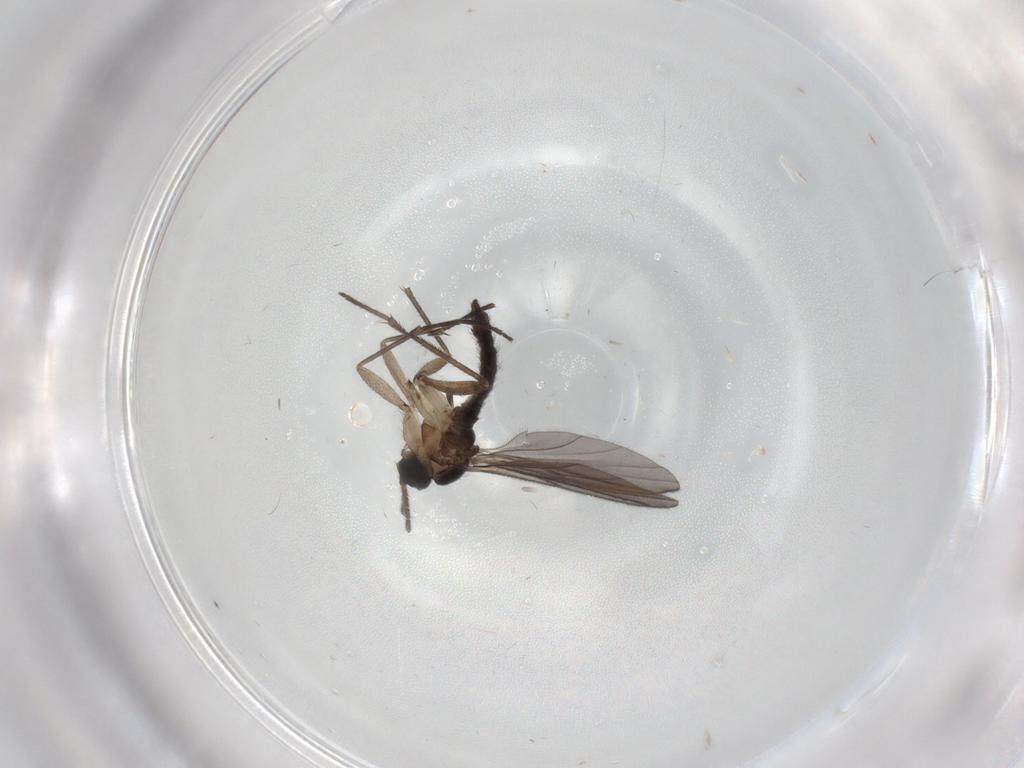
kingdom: Animalia
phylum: Arthropoda
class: Insecta
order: Diptera
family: Sciaridae
